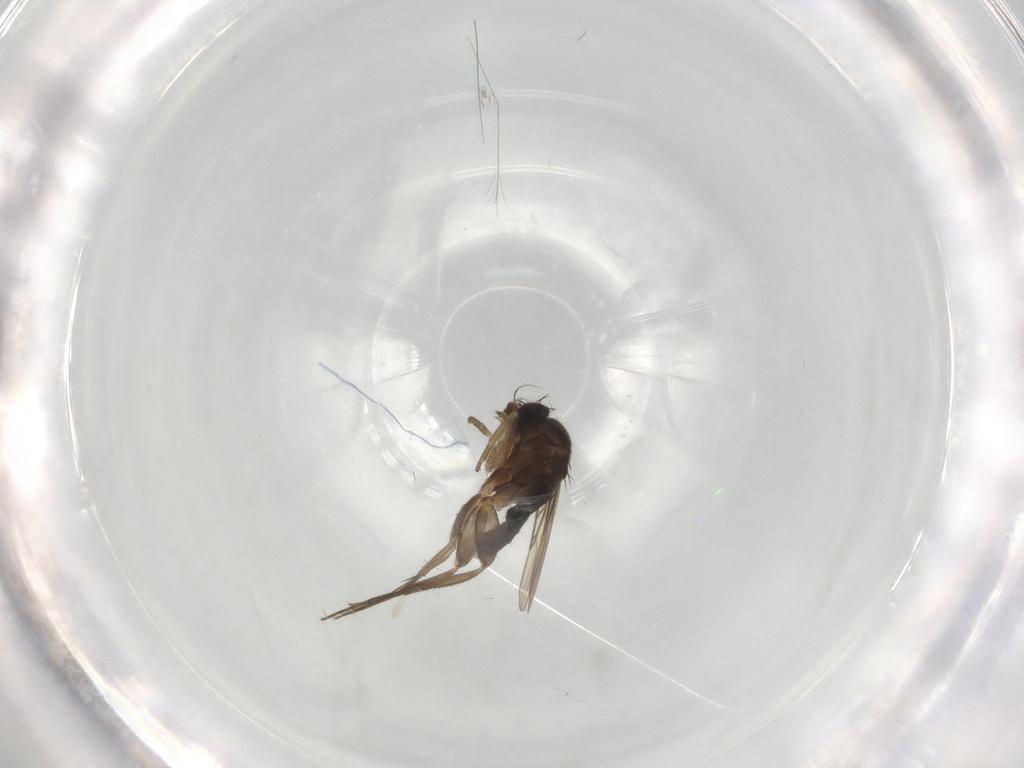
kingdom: Animalia
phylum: Arthropoda
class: Insecta
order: Diptera
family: Phoridae
